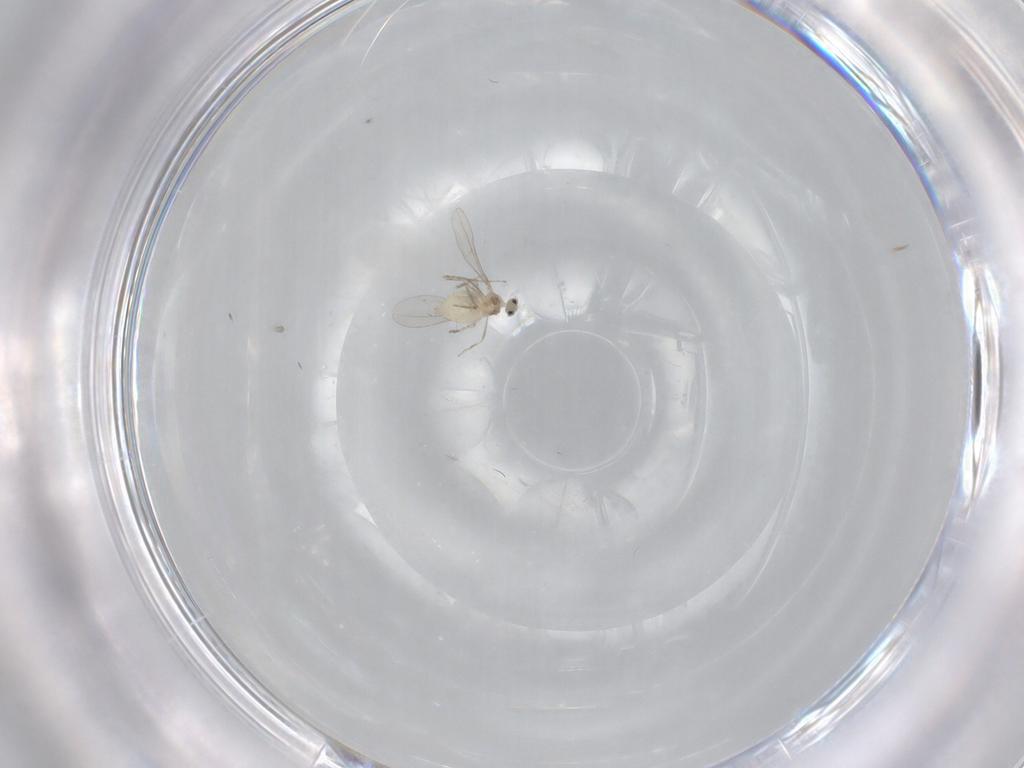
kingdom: Animalia
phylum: Arthropoda
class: Insecta
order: Diptera
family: Cecidomyiidae
